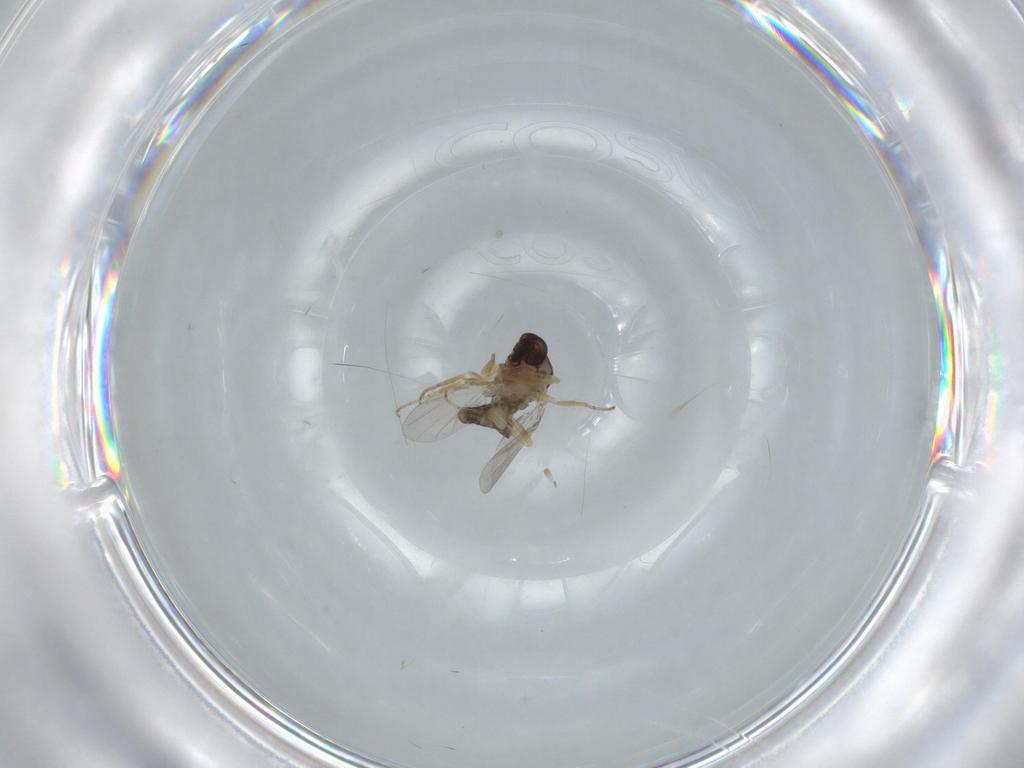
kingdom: Animalia
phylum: Arthropoda
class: Insecta
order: Diptera
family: Ceratopogonidae
